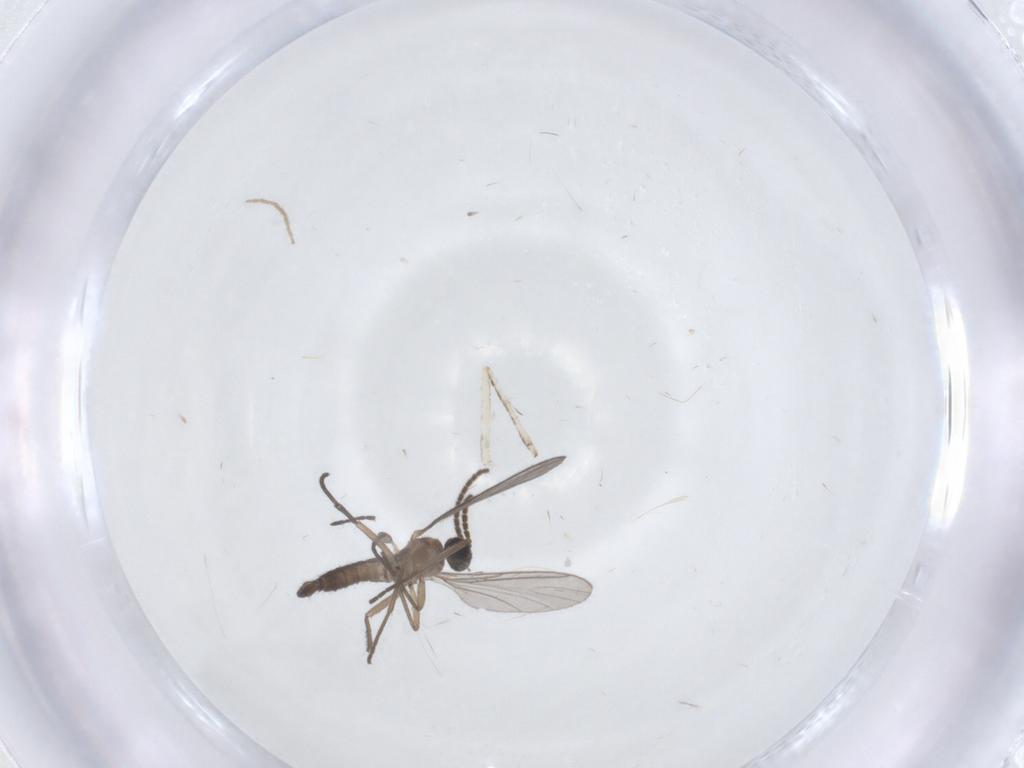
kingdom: Animalia
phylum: Arthropoda
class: Insecta
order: Diptera
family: Sciaridae
